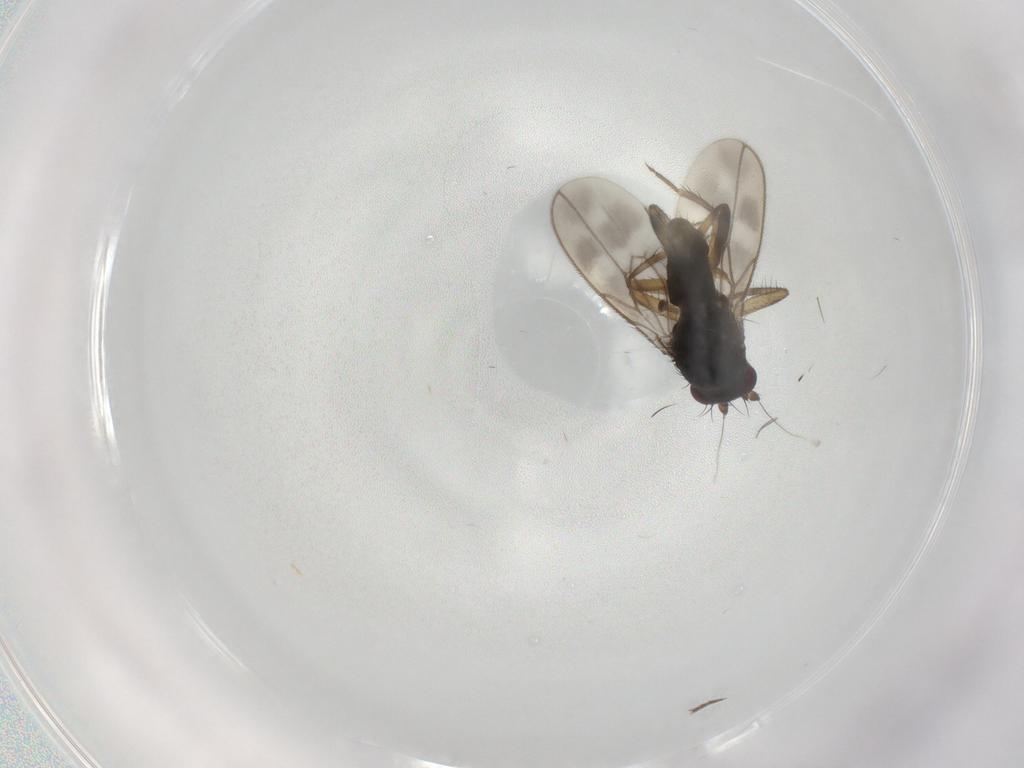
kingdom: Animalia
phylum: Arthropoda
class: Insecta
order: Diptera
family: Sphaeroceridae
